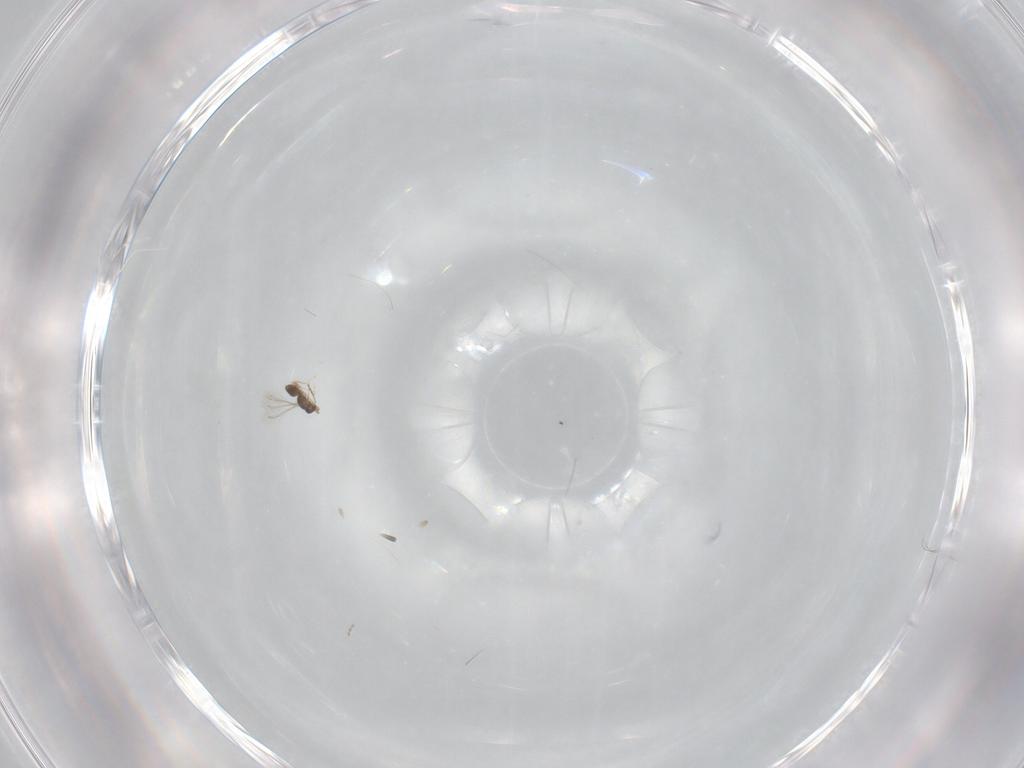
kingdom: Animalia
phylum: Arthropoda
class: Insecta
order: Hymenoptera
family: Mymaridae
